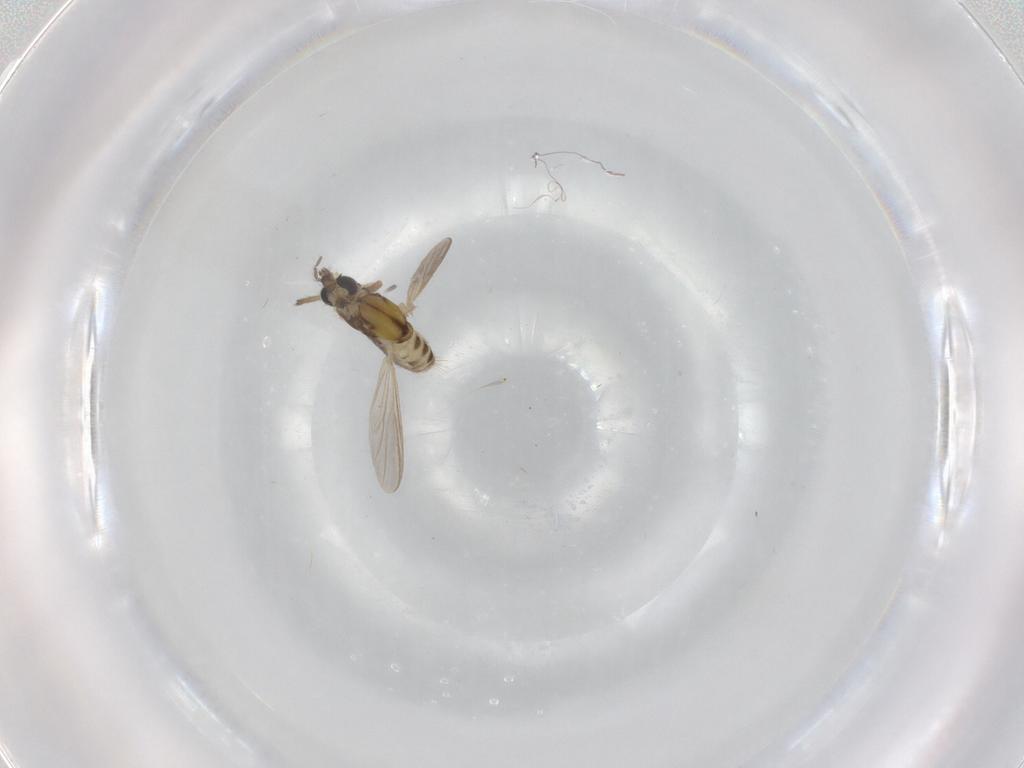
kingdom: Animalia
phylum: Arthropoda
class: Insecta
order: Diptera
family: Chironomidae
